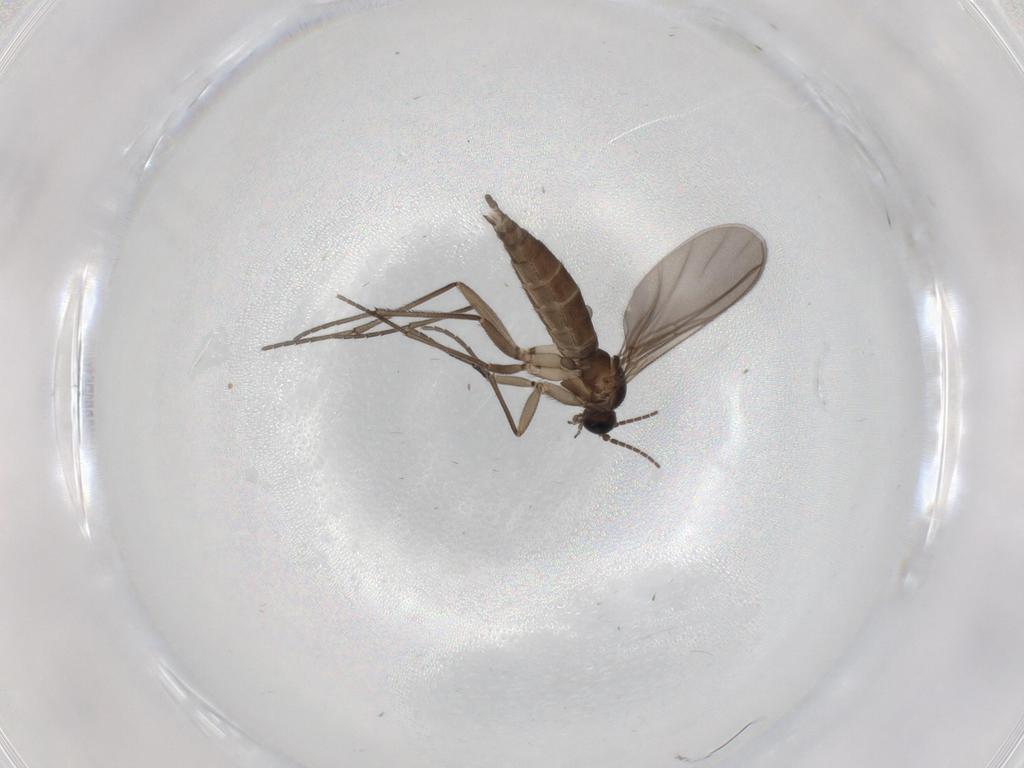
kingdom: Animalia
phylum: Arthropoda
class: Insecta
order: Diptera
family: Sciaridae
